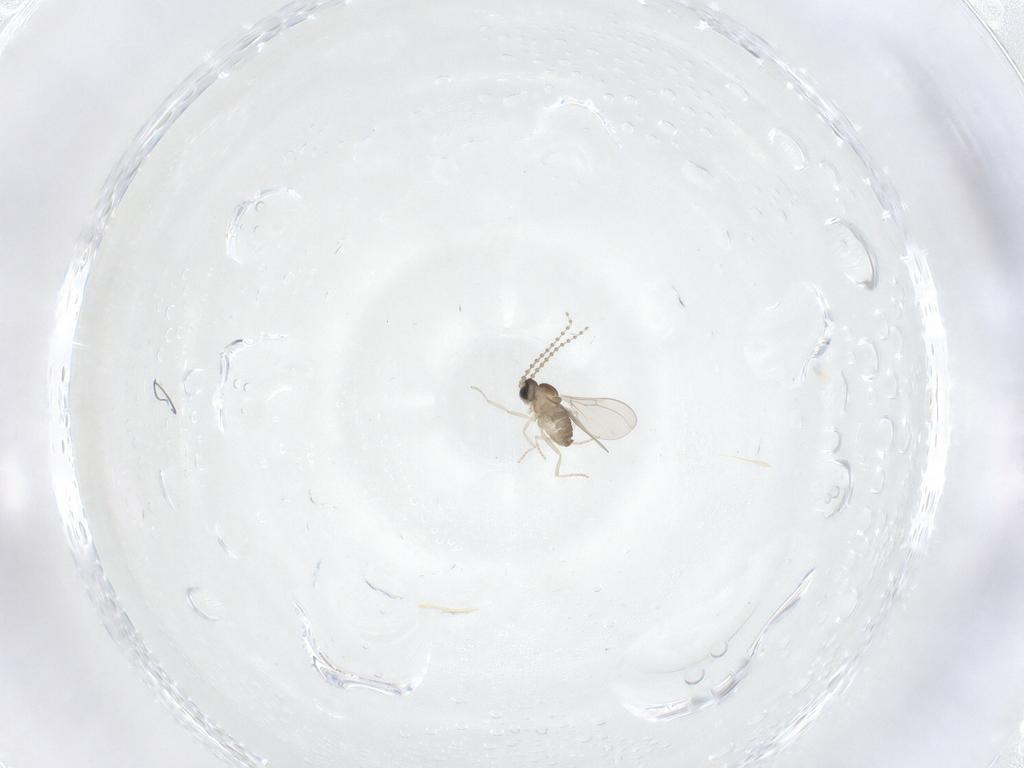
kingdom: Animalia
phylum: Arthropoda
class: Insecta
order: Diptera
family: Cecidomyiidae
